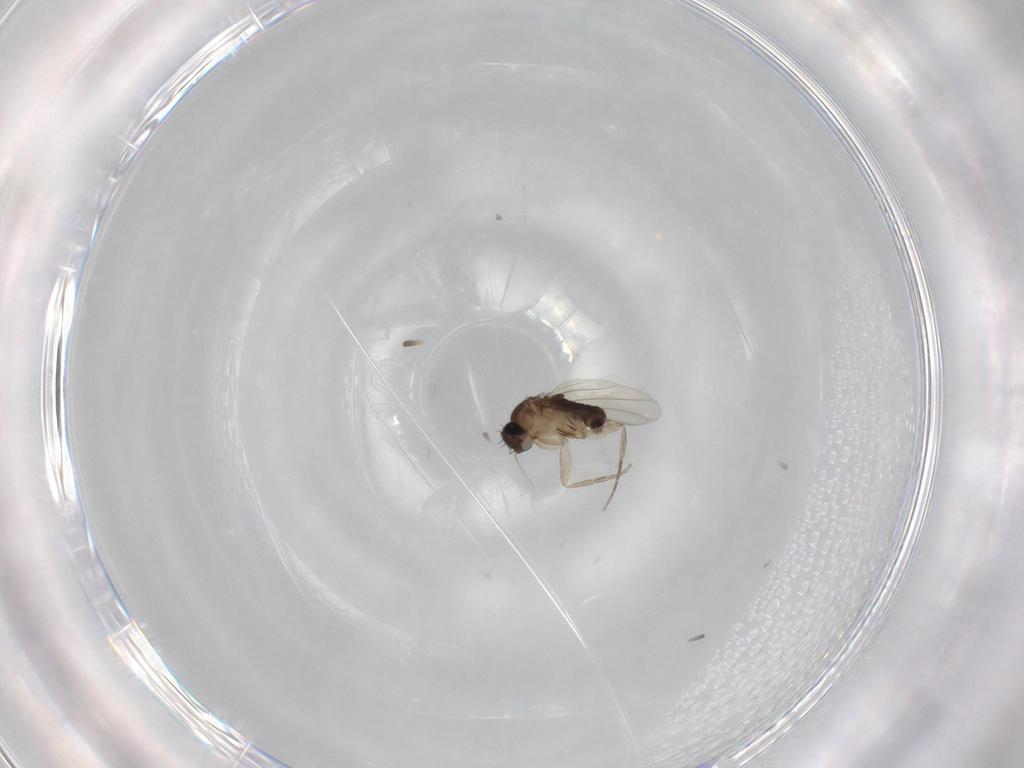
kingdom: Animalia
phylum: Arthropoda
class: Insecta
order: Diptera
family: Phoridae
